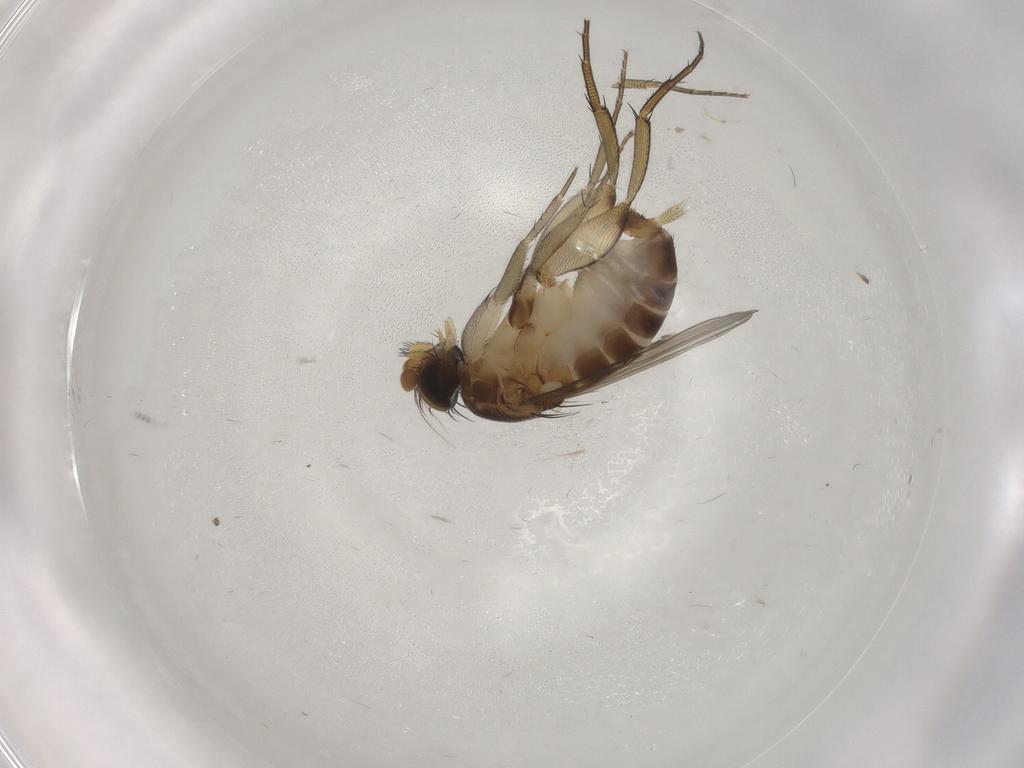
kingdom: Animalia
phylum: Arthropoda
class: Insecta
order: Diptera
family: Phoridae
